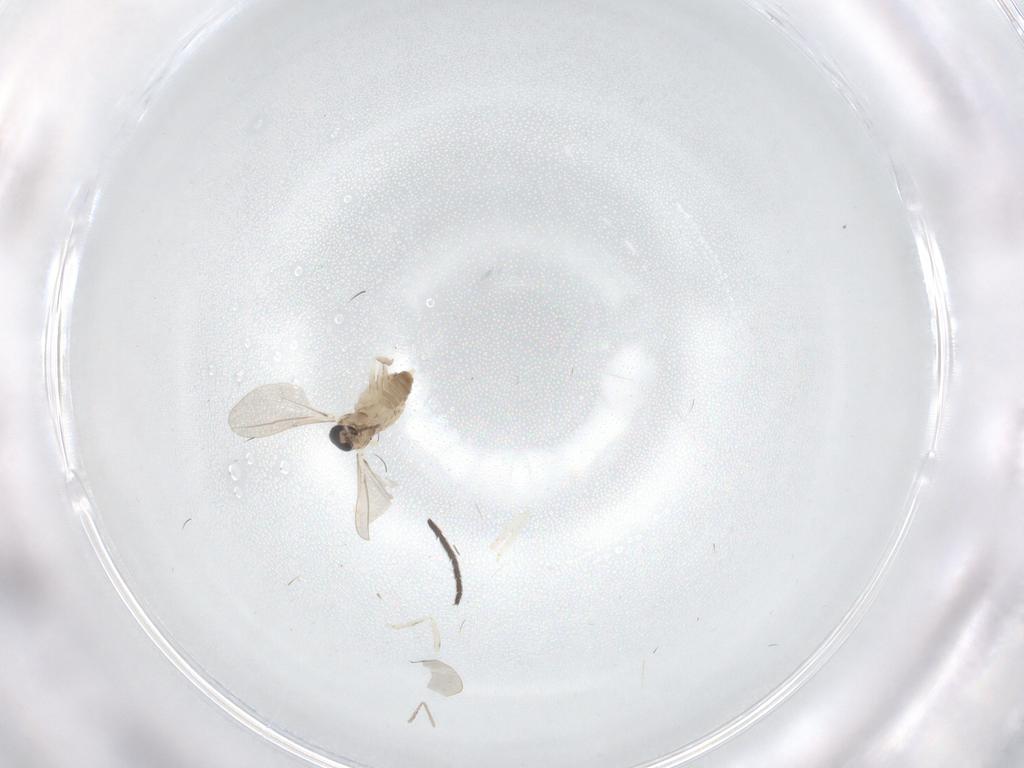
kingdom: Animalia
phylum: Arthropoda
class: Insecta
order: Diptera
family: Cecidomyiidae
